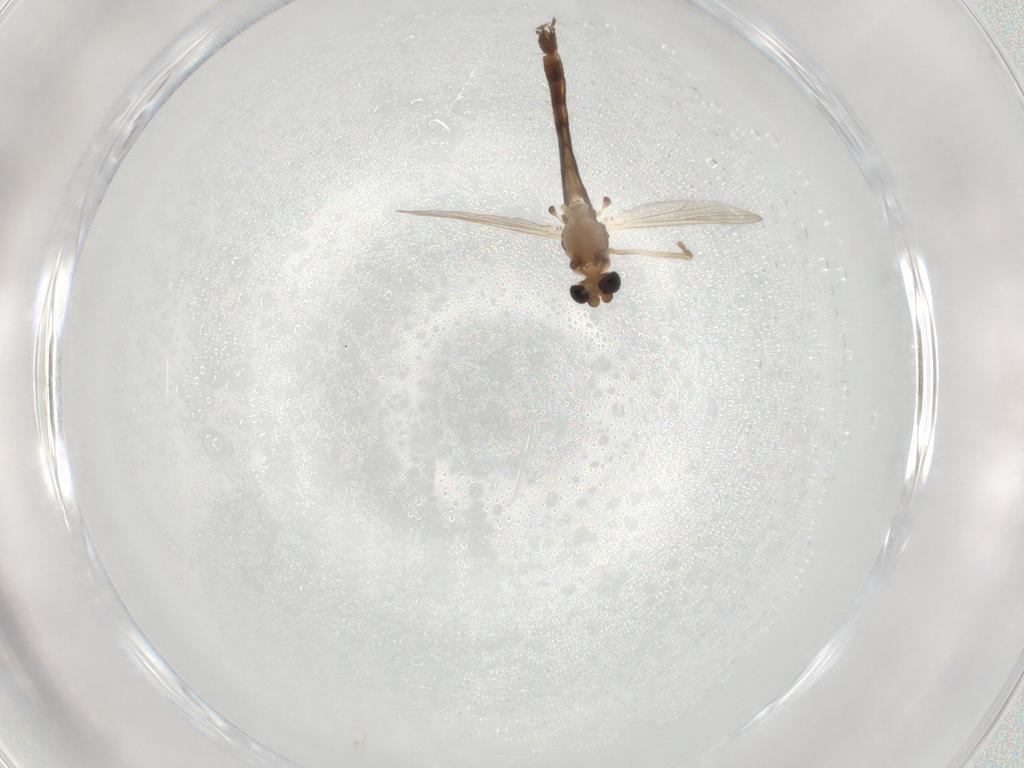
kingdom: Animalia
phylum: Arthropoda
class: Insecta
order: Diptera
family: Chironomidae
